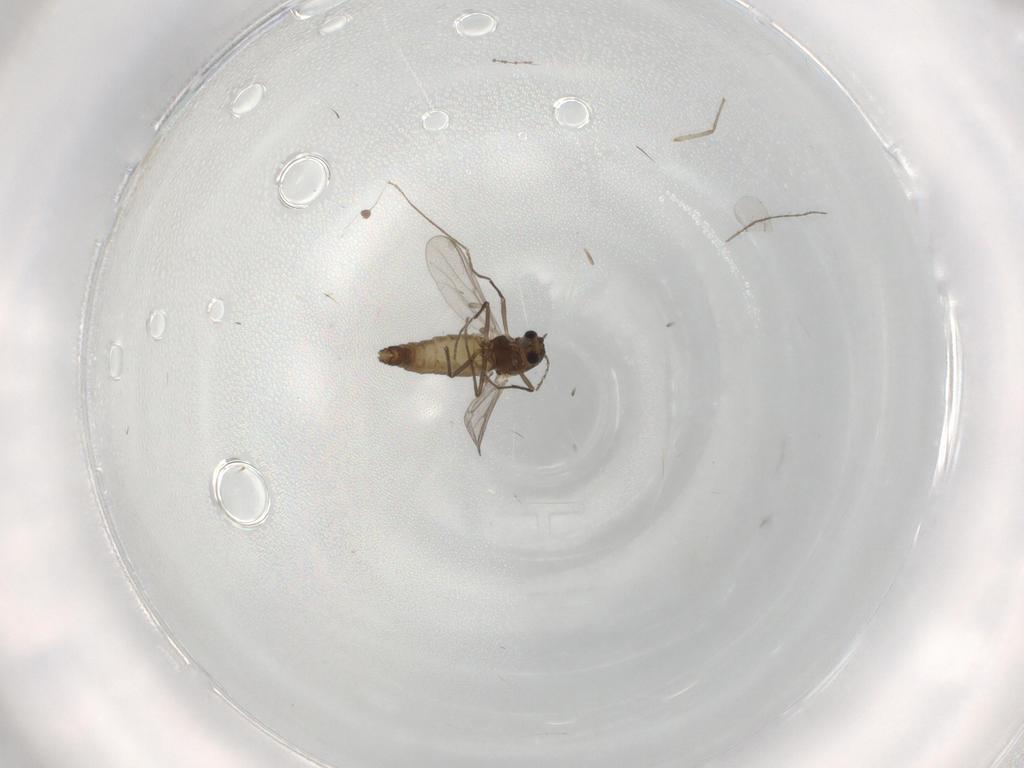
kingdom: Animalia
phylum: Arthropoda
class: Insecta
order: Diptera
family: Chironomidae
